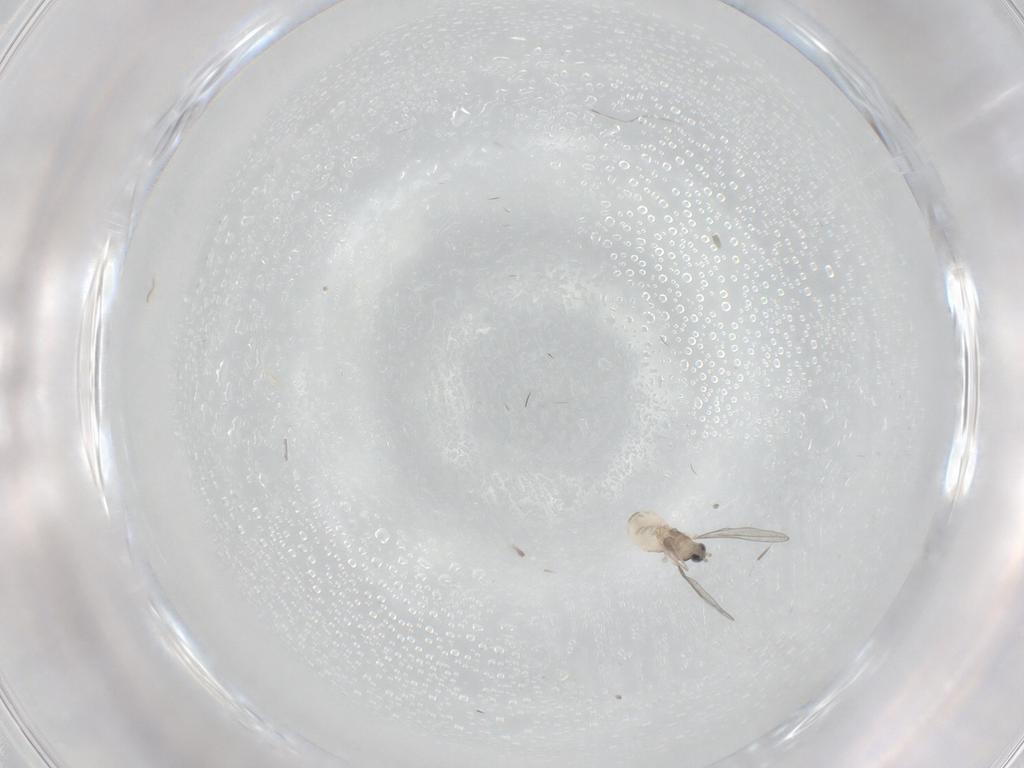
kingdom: Animalia
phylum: Arthropoda
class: Insecta
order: Diptera
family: Cecidomyiidae
